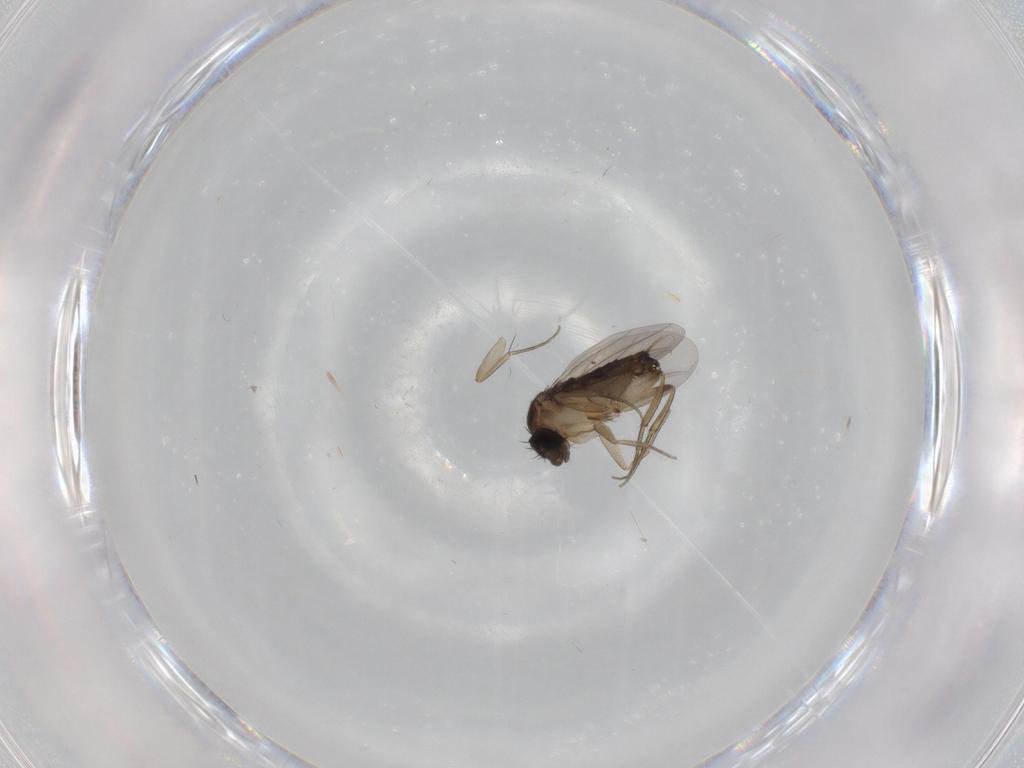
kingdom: Animalia
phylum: Arthropoda
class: Insecta
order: Diptera
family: Phoridae
